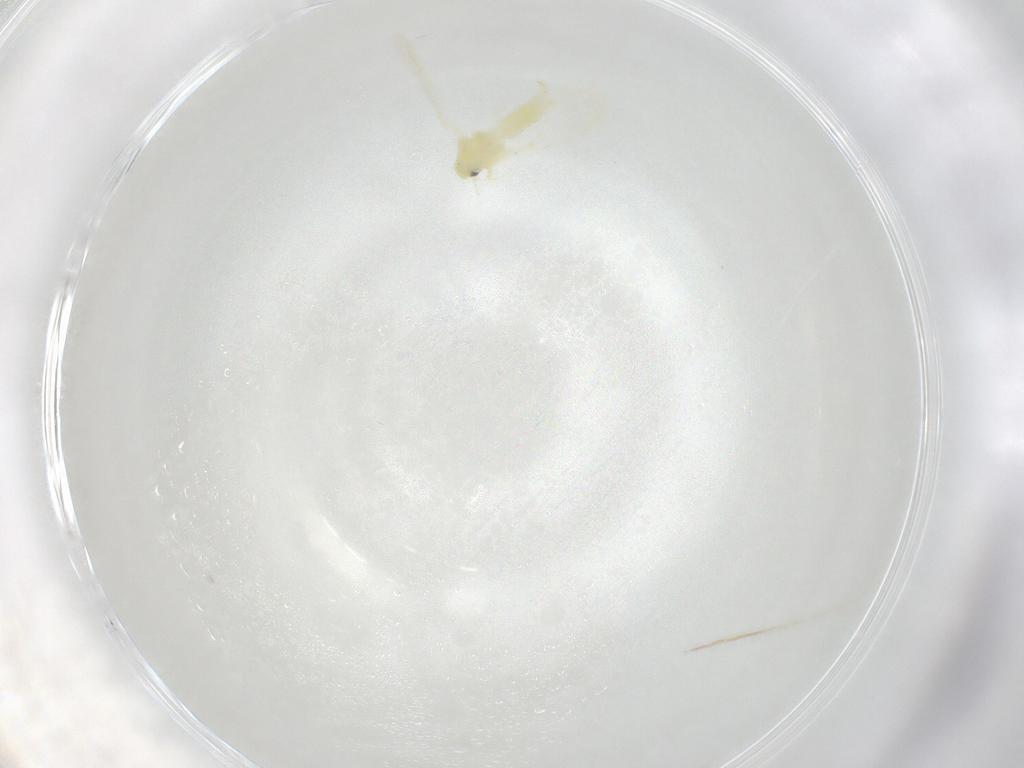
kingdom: Animalia
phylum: Arthropoda
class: Insecta
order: Hemiptera
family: Aleyrodidae
